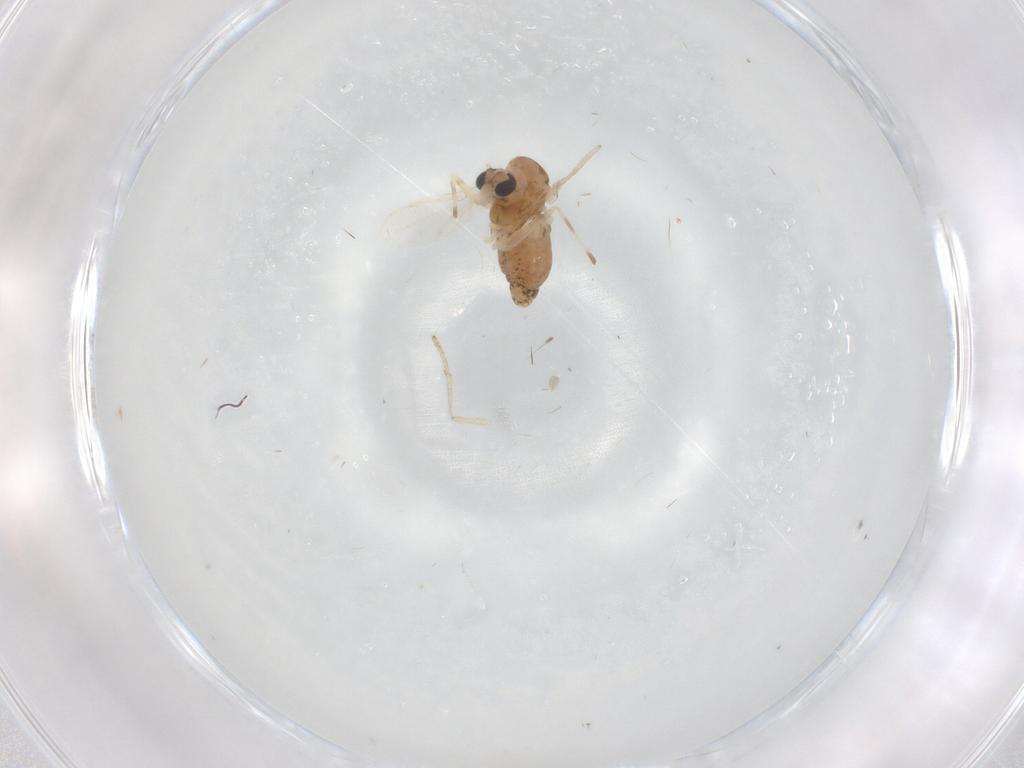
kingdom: Animalia
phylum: Arthropoda
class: Insecta
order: Diptera
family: Chironomidae
